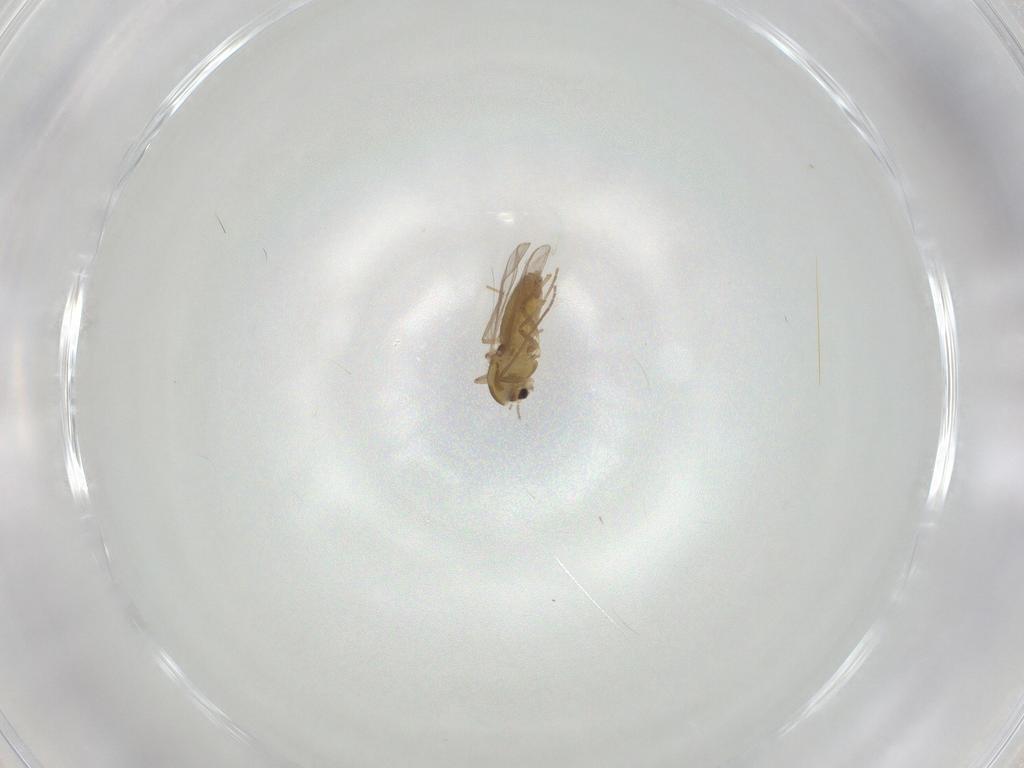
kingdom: Animalia
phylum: Arthropoda
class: Insecta
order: Diptera
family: Chironomidae
